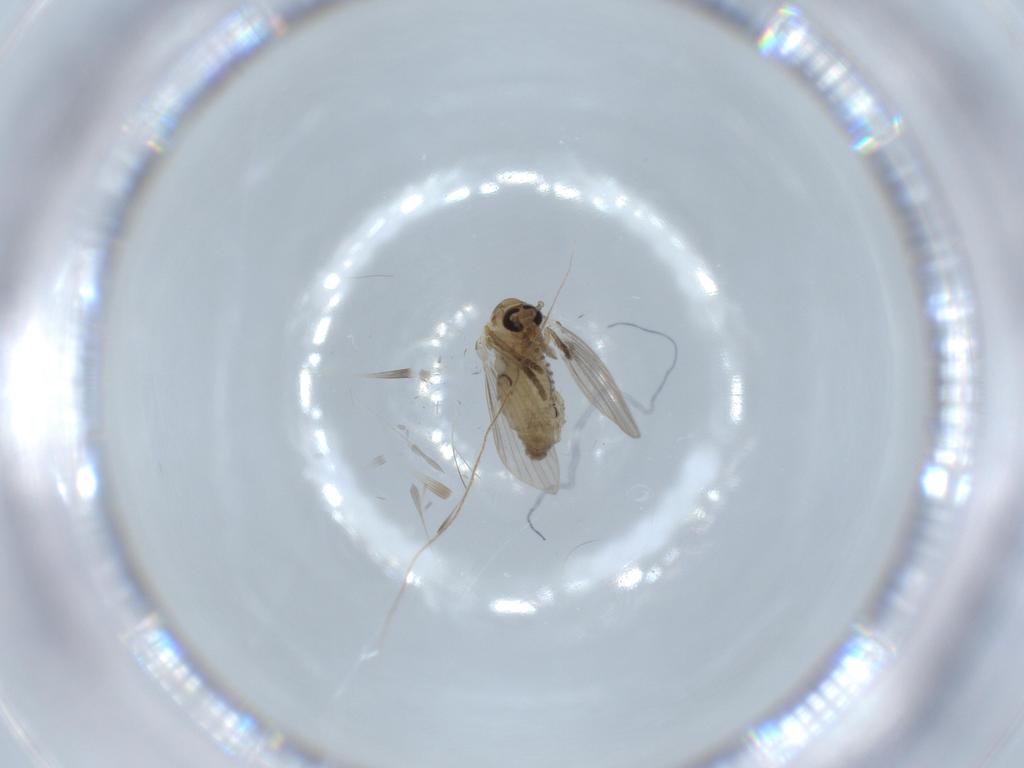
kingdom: Animalia
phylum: Arthropoda
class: Insecta
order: Diptera
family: Psychodidae
